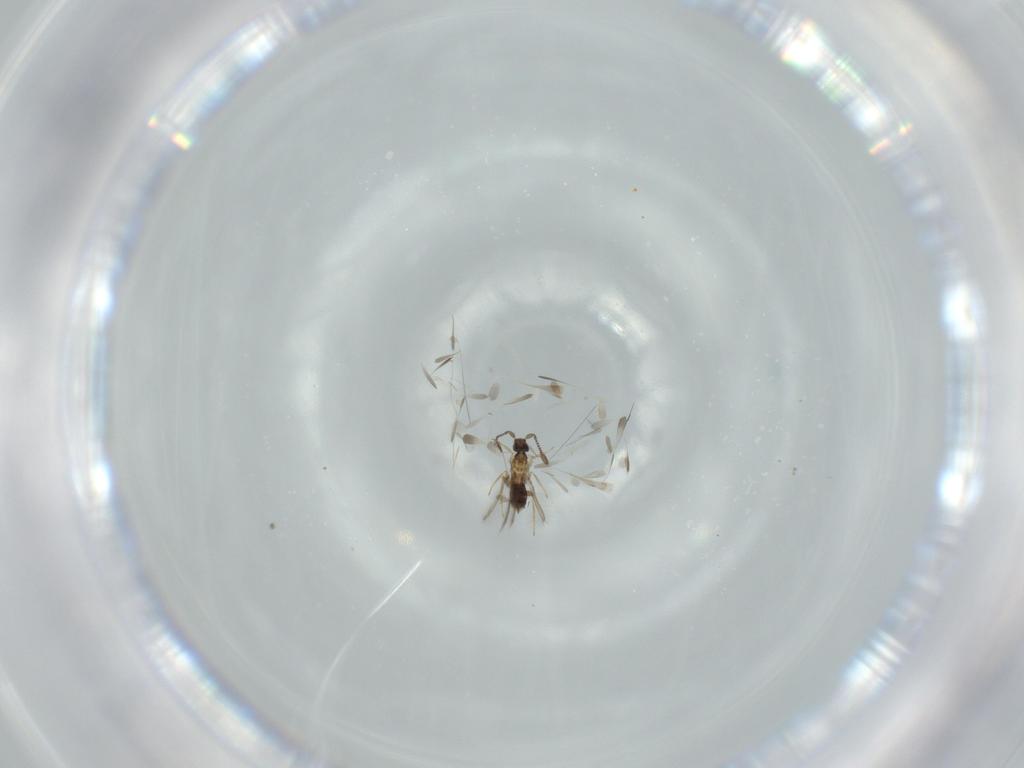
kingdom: Animalia
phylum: Arthropoda
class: Insecta
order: Hymenoptera
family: Mymaridae
